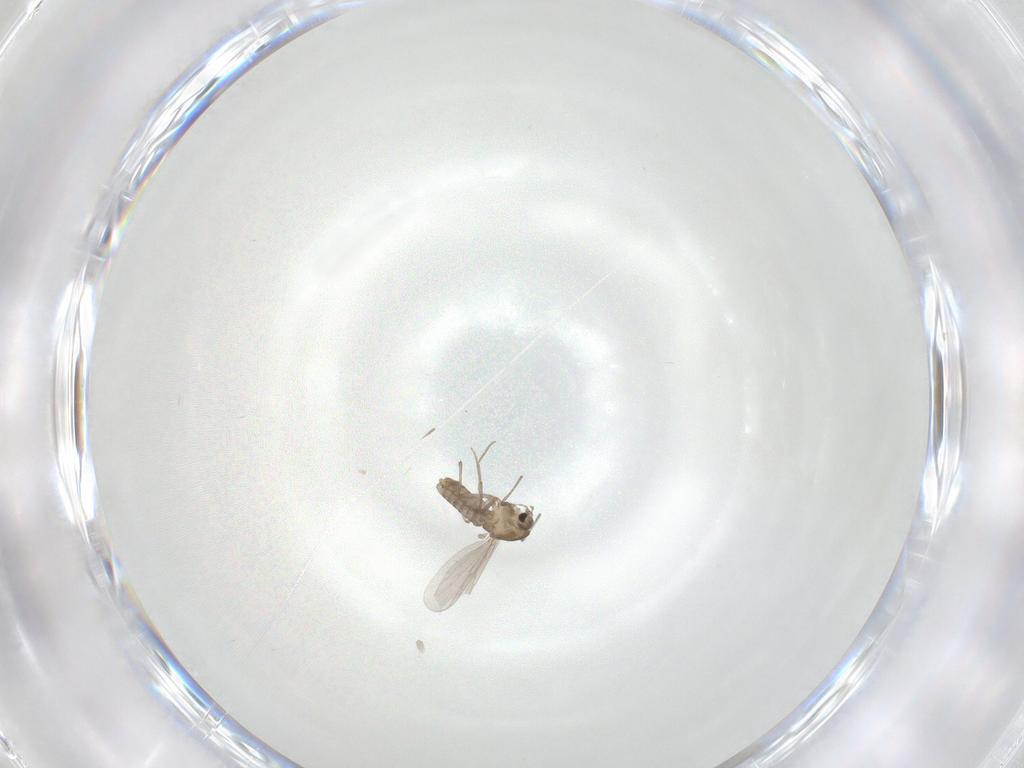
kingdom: Animalia
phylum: Arthropoda
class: Insecta
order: Diptera
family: Chironomidae
